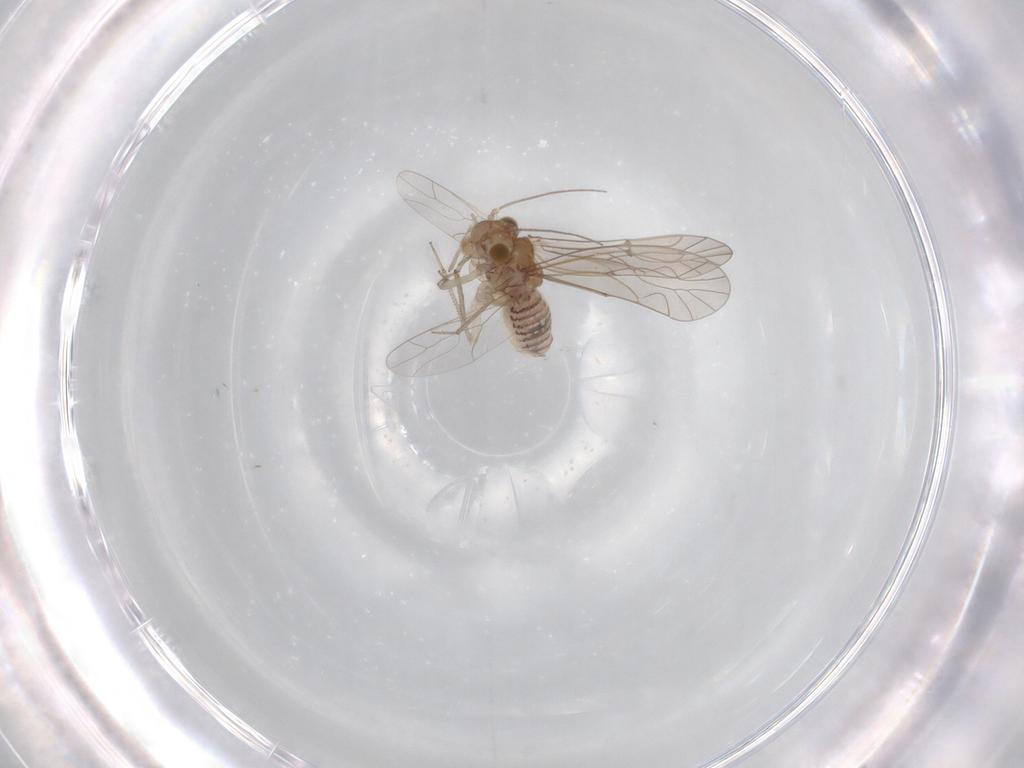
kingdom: Animalia
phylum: Arthropoda
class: Insecta
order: Psocodea
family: Lachesillidae
